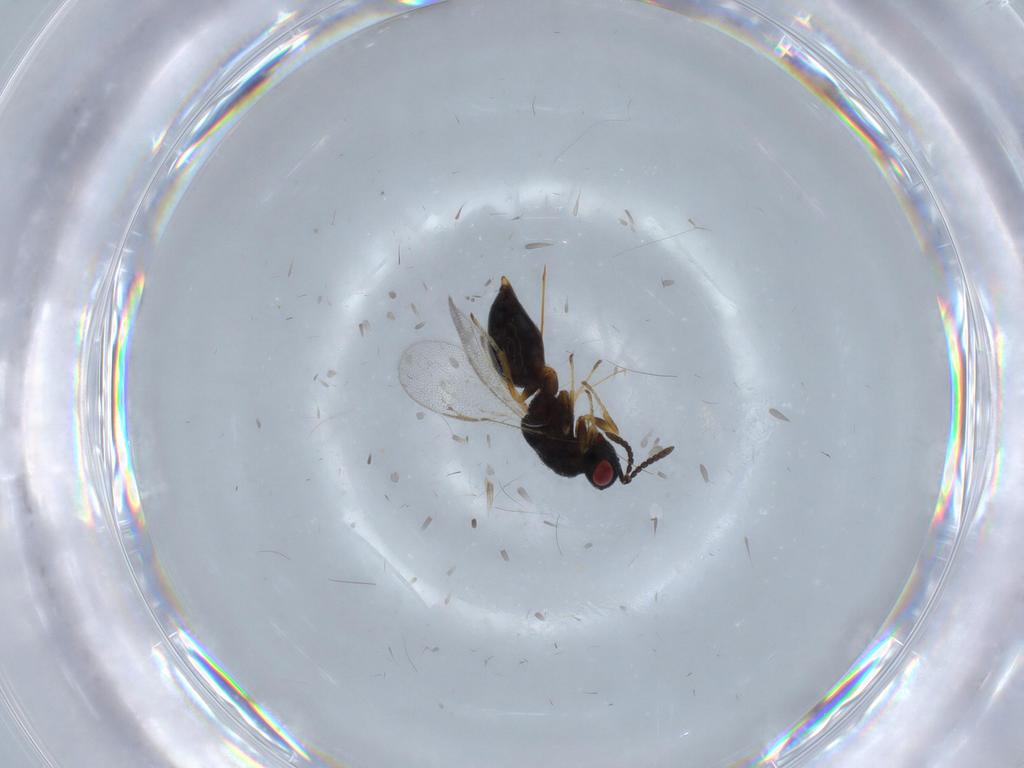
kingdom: Animalia
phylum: Arthropoda
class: Insecta
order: Hymenoptera
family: Eurytomidae
